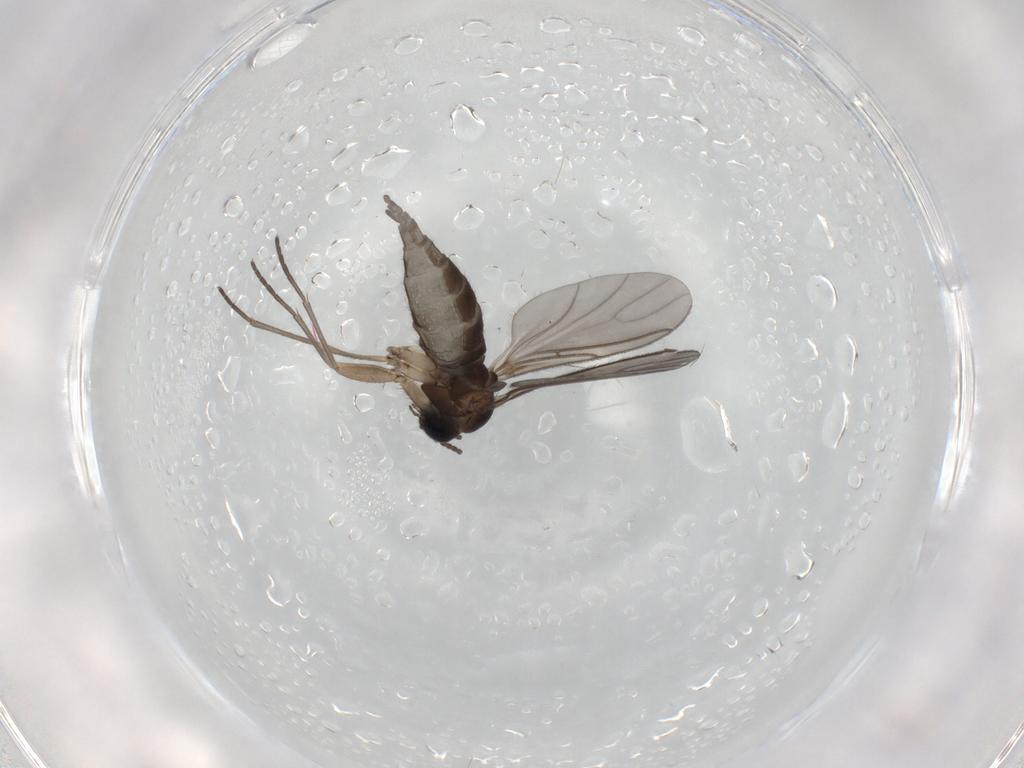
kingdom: Animalia
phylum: Arthropoda
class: Insecta
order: Diptera
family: Sciaridae
